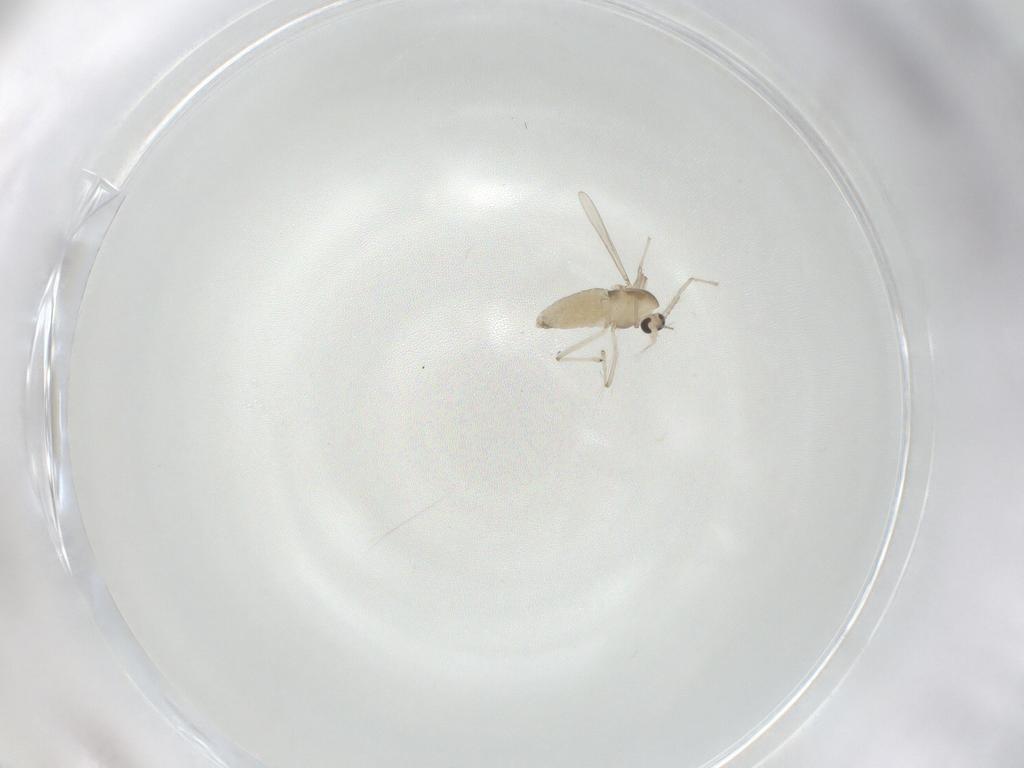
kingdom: Animalia
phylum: Arthropoda
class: Insecta
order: Diptera
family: Chironomidae
